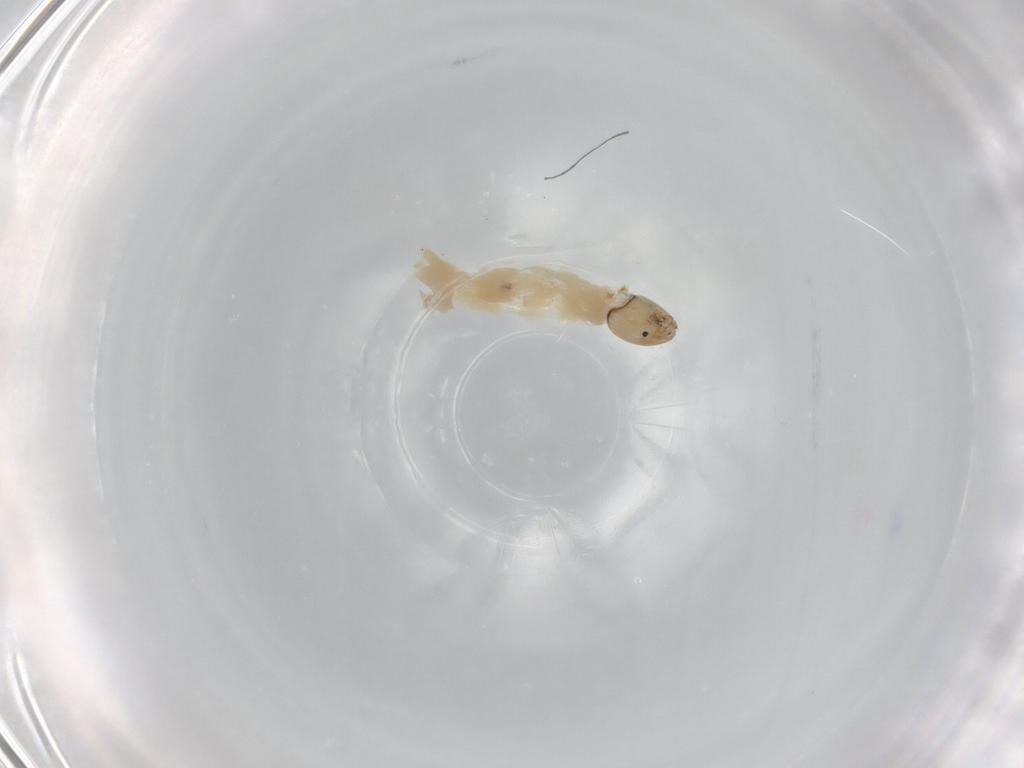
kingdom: Animalia
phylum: Arthropoda
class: Insecta
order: Diptera
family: Chironomidae
